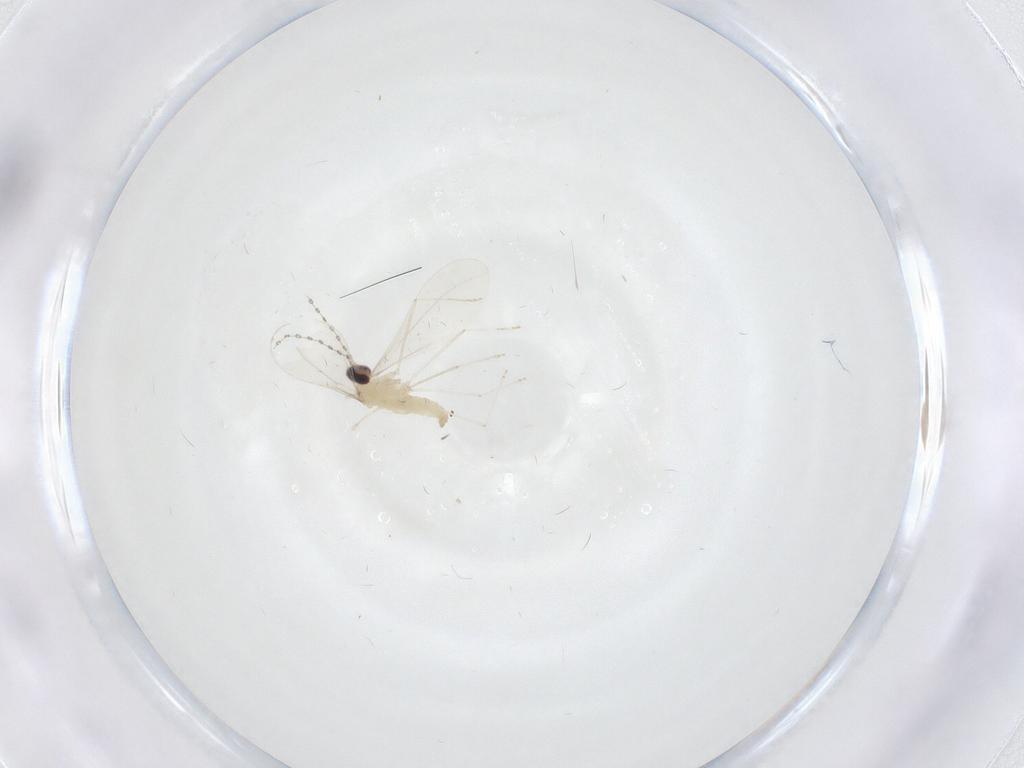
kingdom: Animalia
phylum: Arthropoda
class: Insecta
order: Diptera
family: Cecidomyiidae
